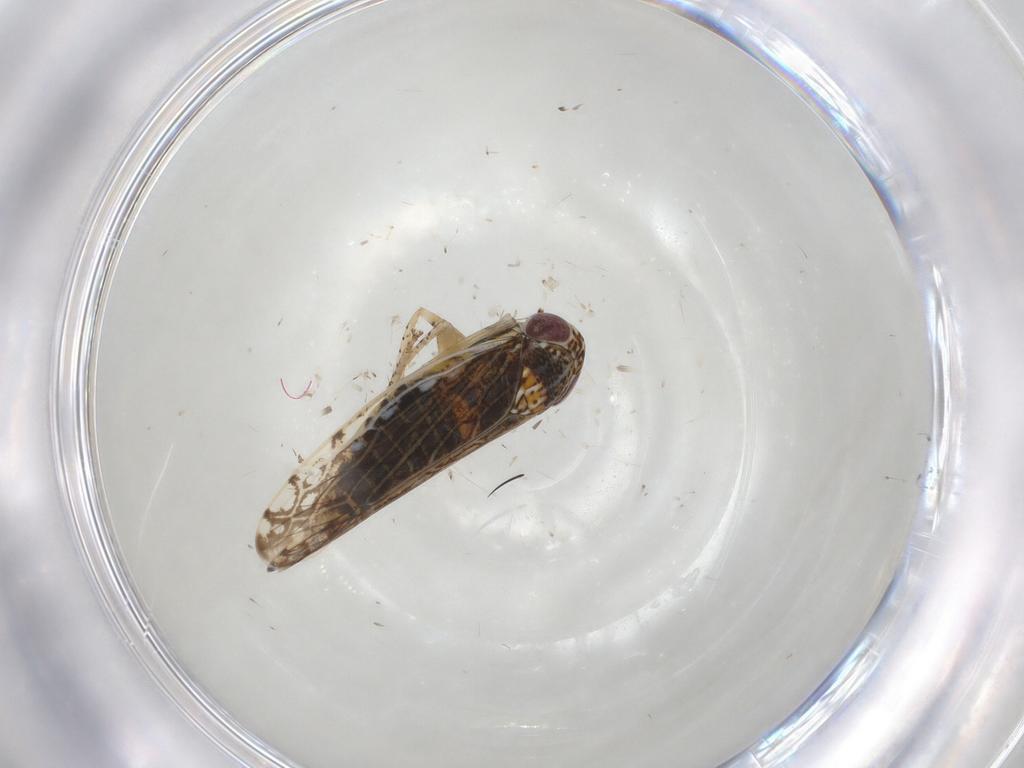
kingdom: Animalia
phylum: Arthropoda
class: Insecta
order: Hemiptera
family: Cicadellidae
